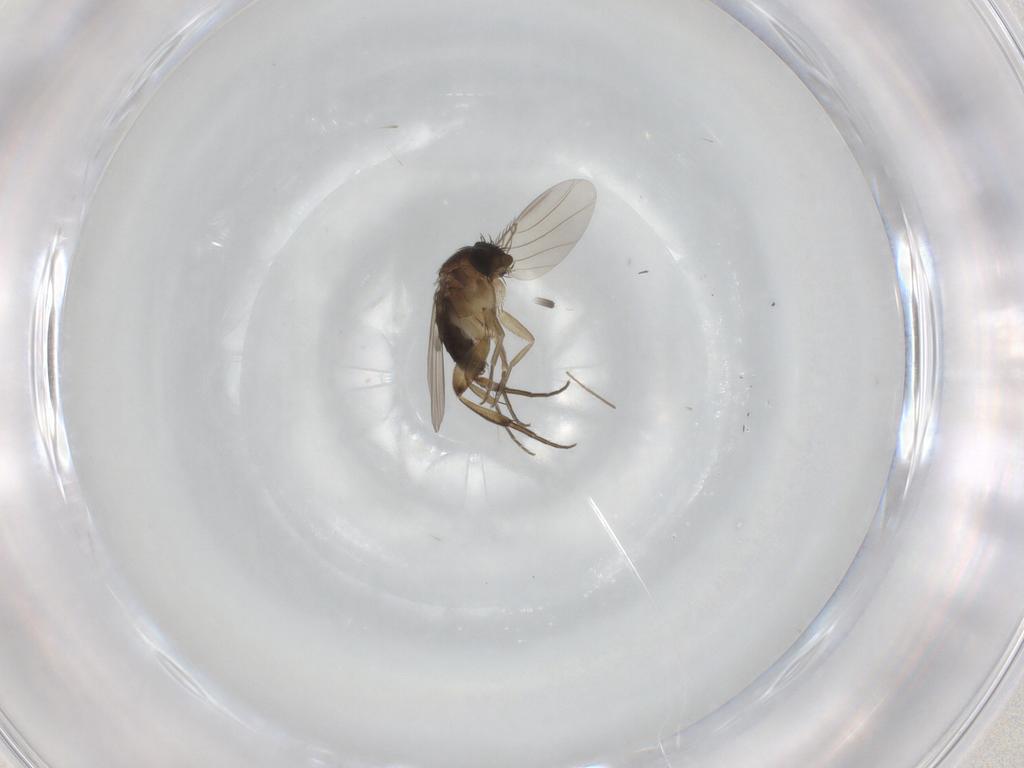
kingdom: Animalia
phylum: Arthropoda
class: Insecta
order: Diptera
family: Phoridae
